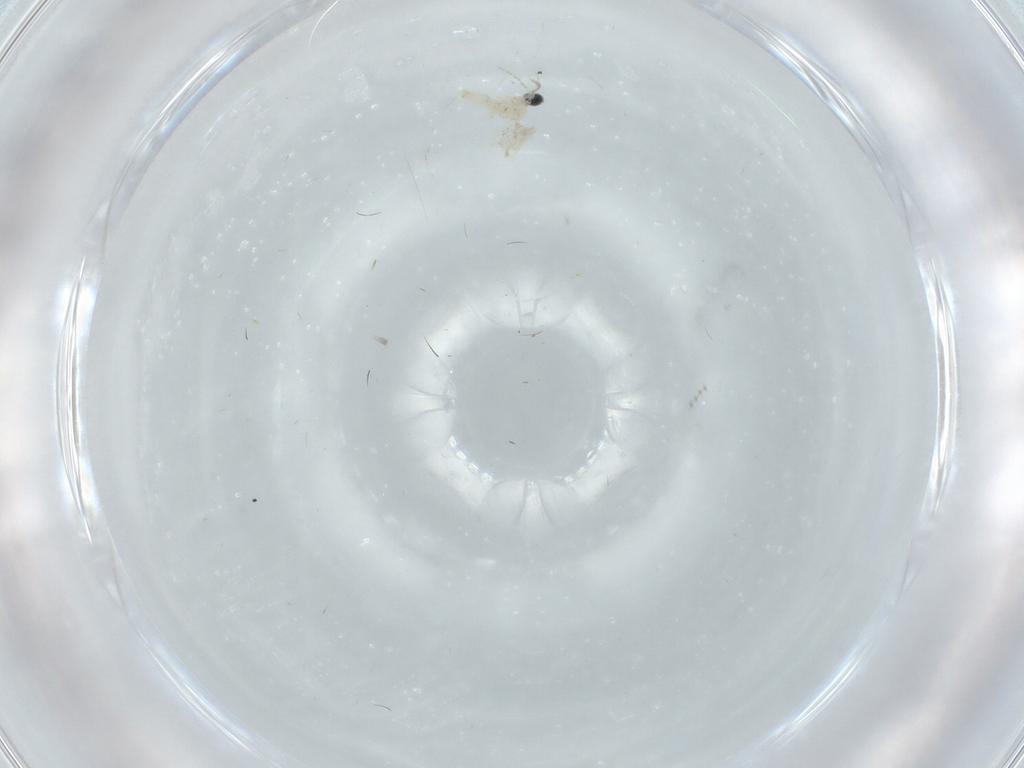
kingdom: Animalia
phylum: Arthropoda
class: Insecta
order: Diptera
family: Cecidomyiidae
